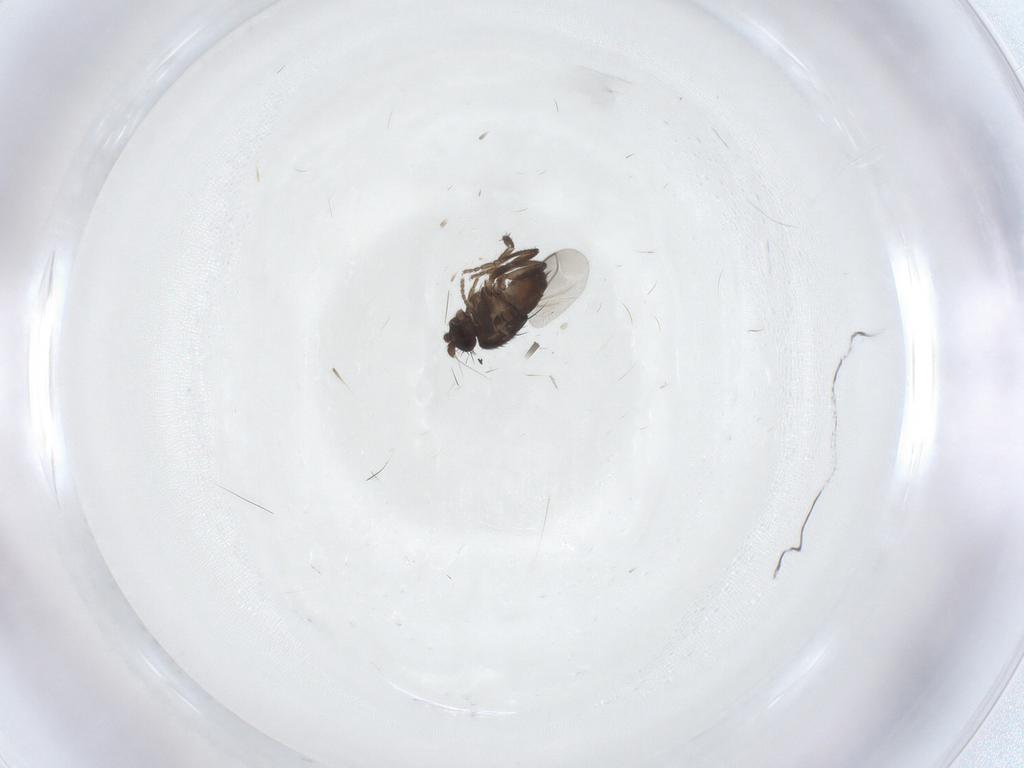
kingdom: Animalia
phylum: Arthropoda
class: Insecta
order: Diptera
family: Sphaeroceridae
